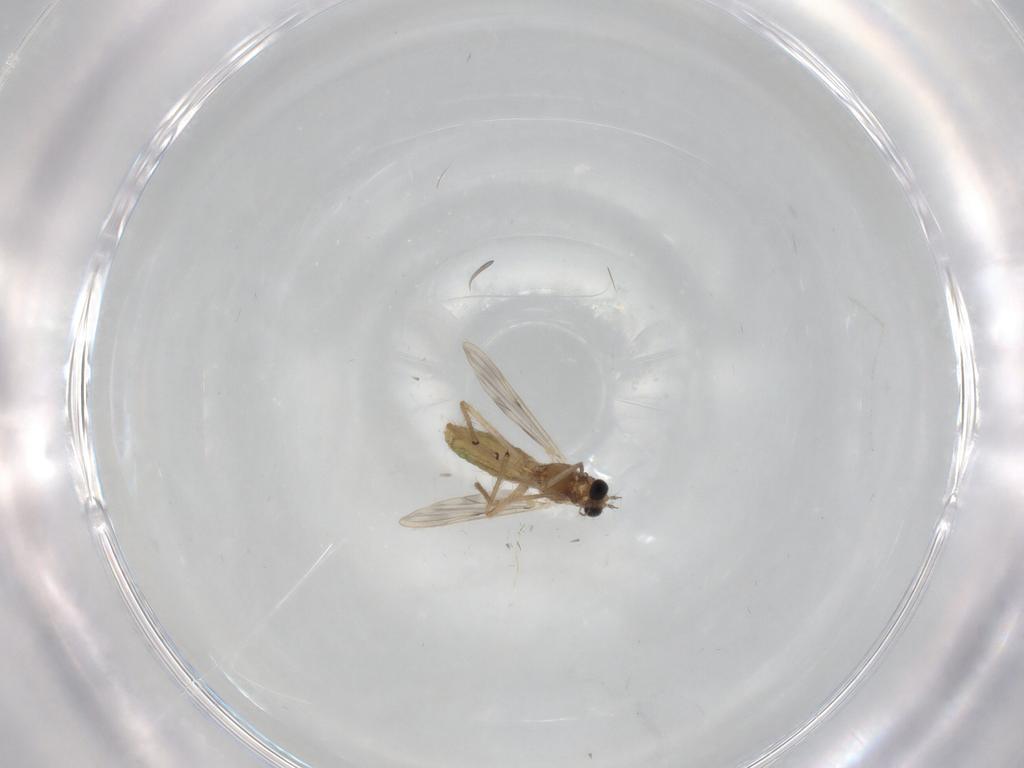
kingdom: Animalia
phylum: Arthropoda
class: Insecta
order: Diptera
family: Chironomidae
